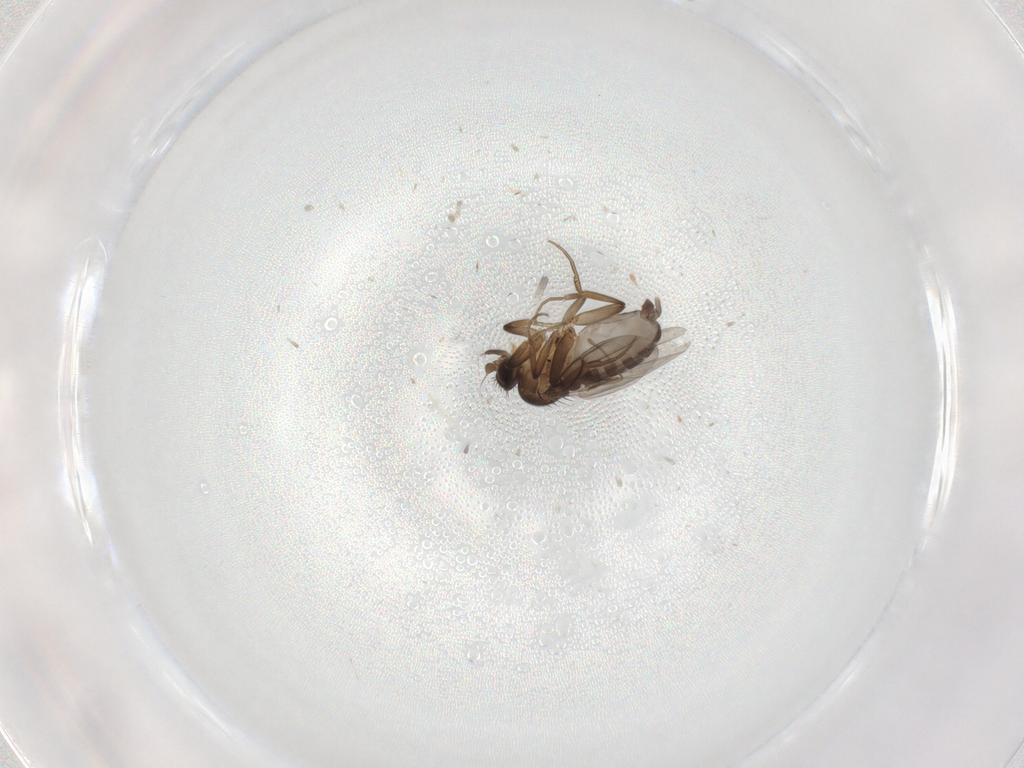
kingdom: Animalia
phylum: Arthropoda
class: Insecta
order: Diptera
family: Psychodidae
